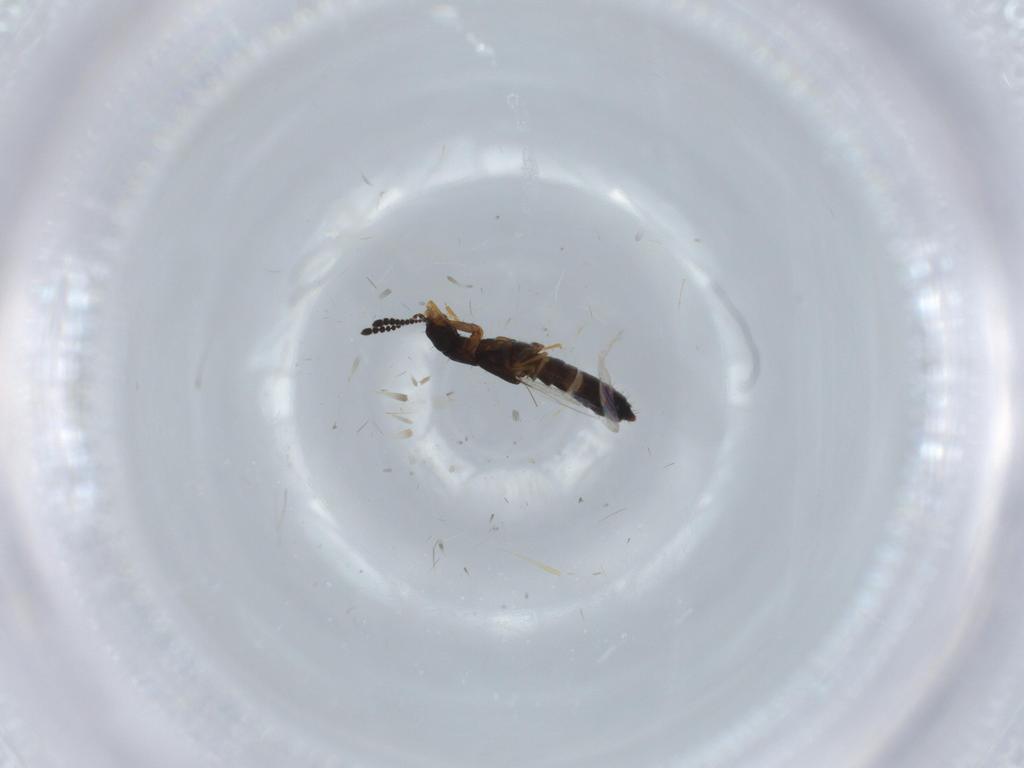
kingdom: Animalia
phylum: Arthropoda
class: Insecta
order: Coleoptera
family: Staphylinidae
